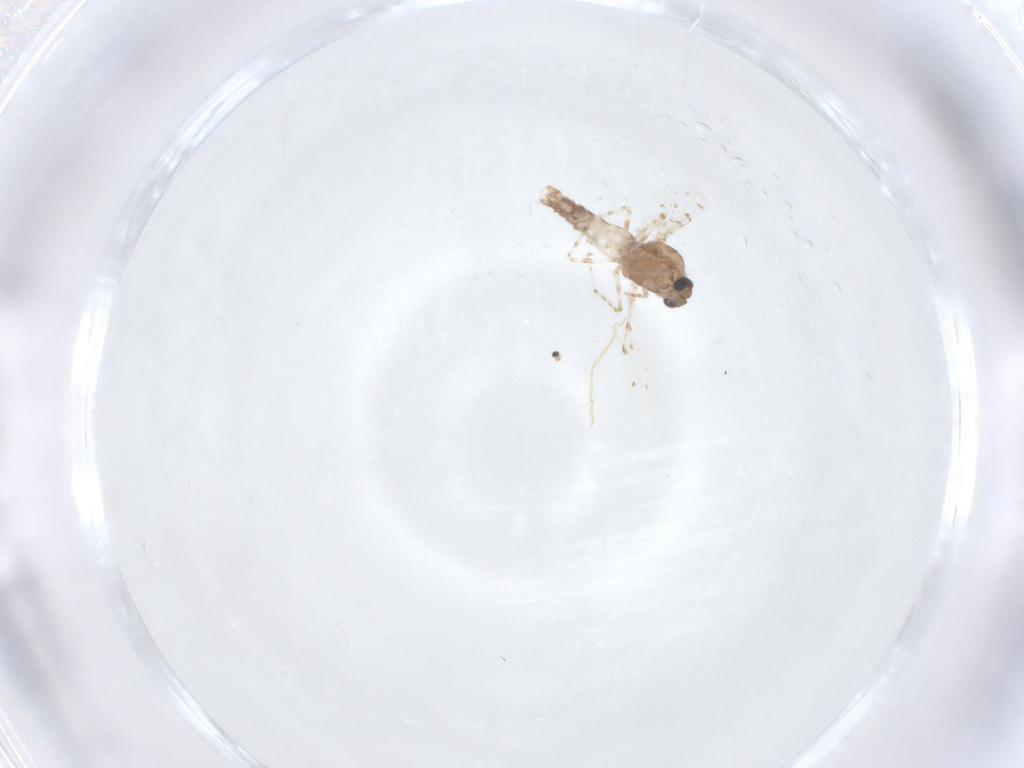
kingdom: Animalia
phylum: Arthropoda
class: Insecta
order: Diptera
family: Ceratopogonidae
